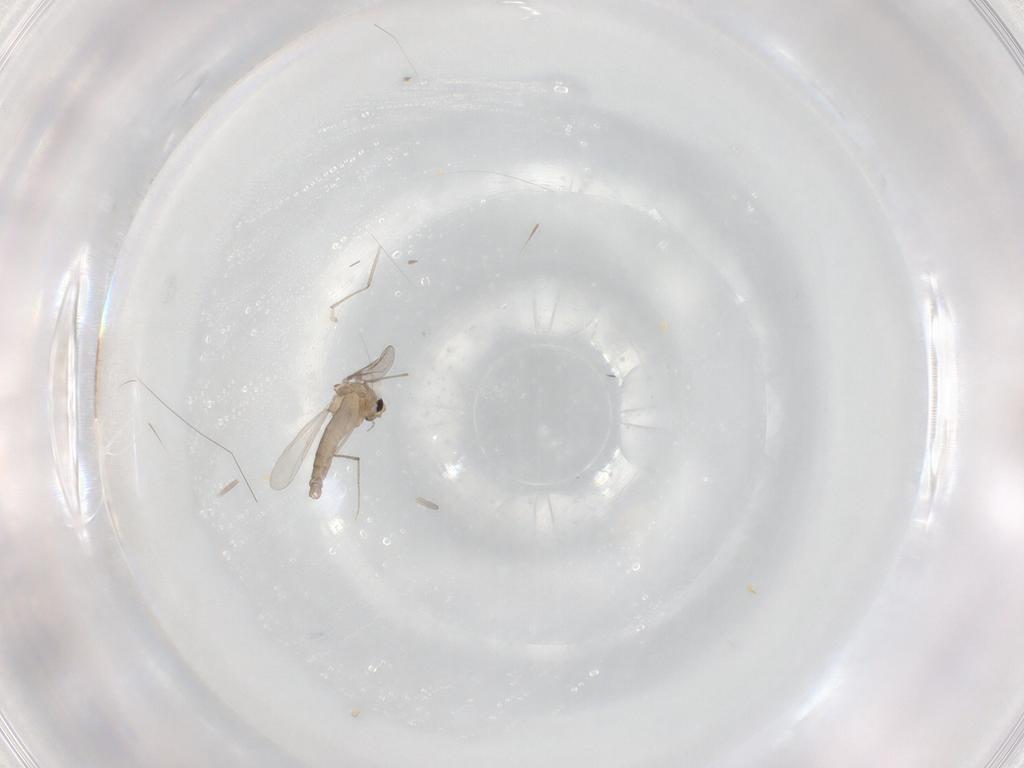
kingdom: Animalia
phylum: Arthropoda
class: Insecta
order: Diptera
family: Chironomidae
